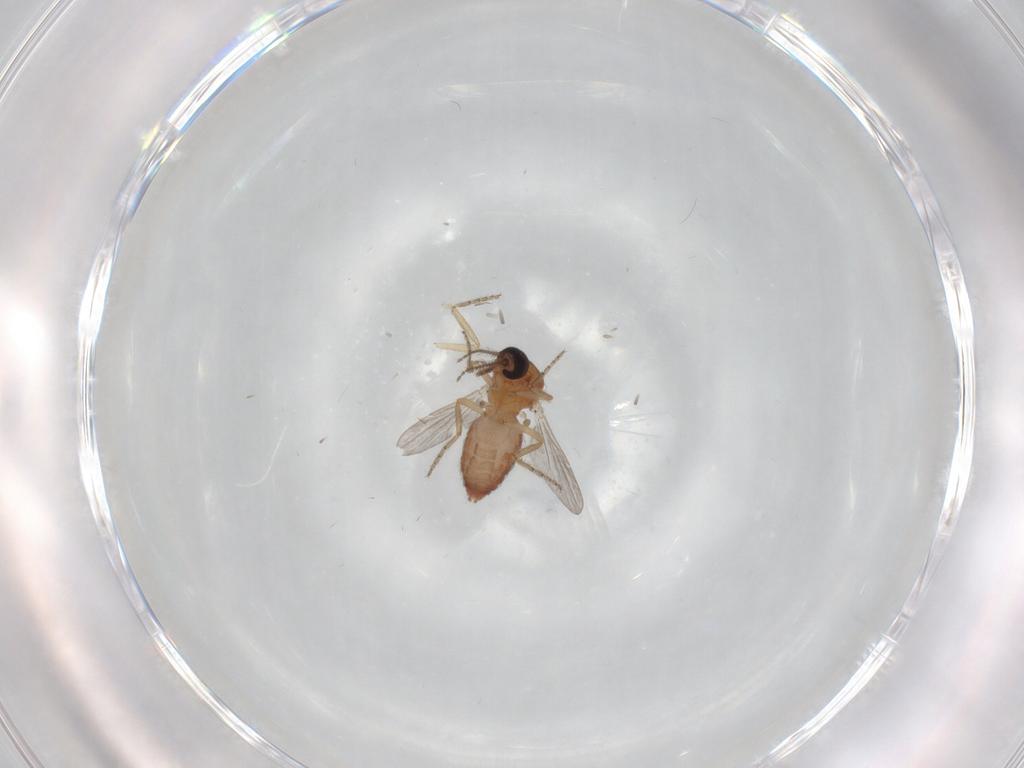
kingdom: Animalia
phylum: Arthropoda
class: Insecta
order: Diptera
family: Ceratopogonidae
